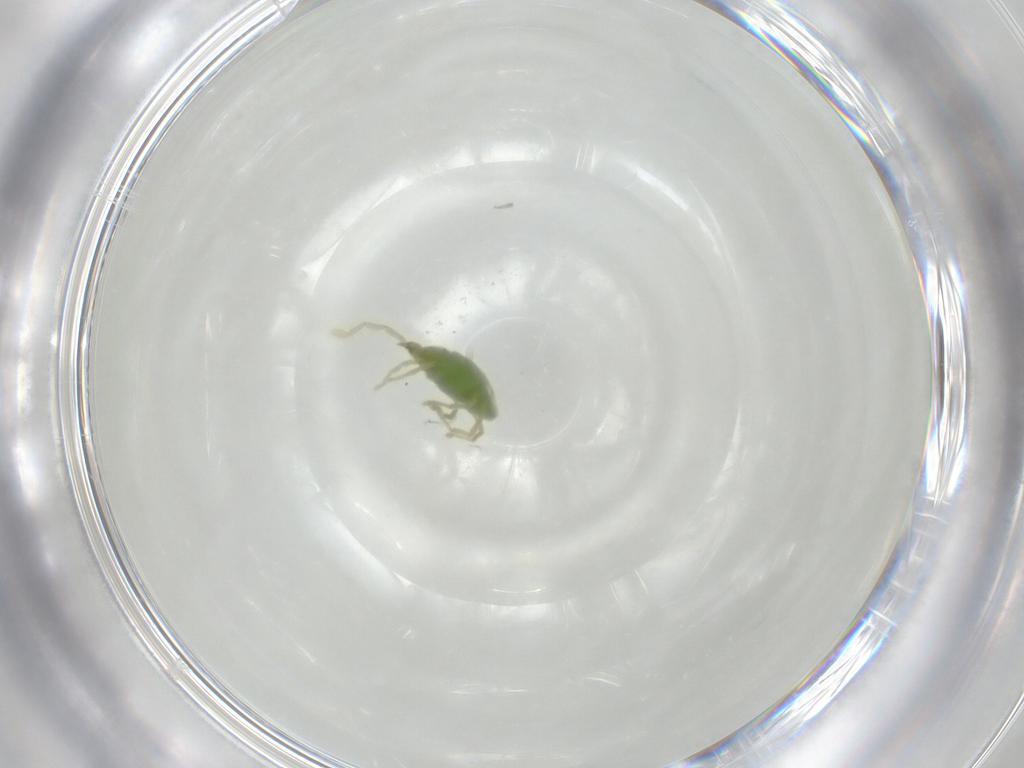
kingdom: Animalia
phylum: Arthropoda
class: Arachnida
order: Trombidiformes
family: Erythraeidae
